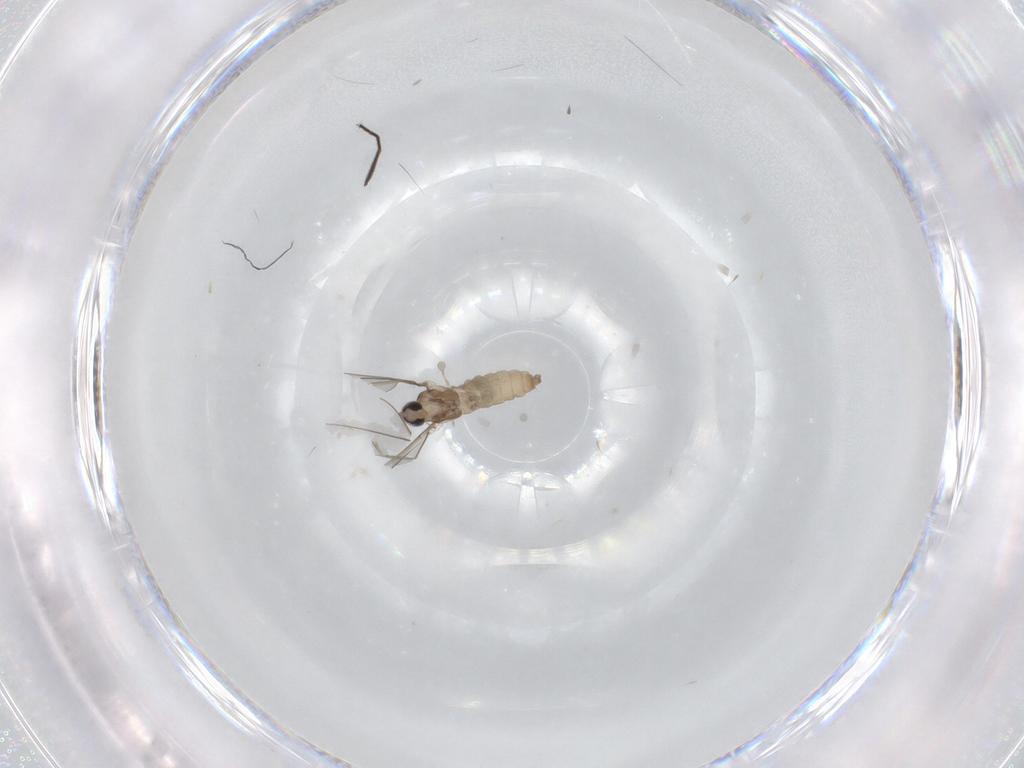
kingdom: Animalia
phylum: Arthropoda
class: Insecta
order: Diptera
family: Cecidomyiidae
